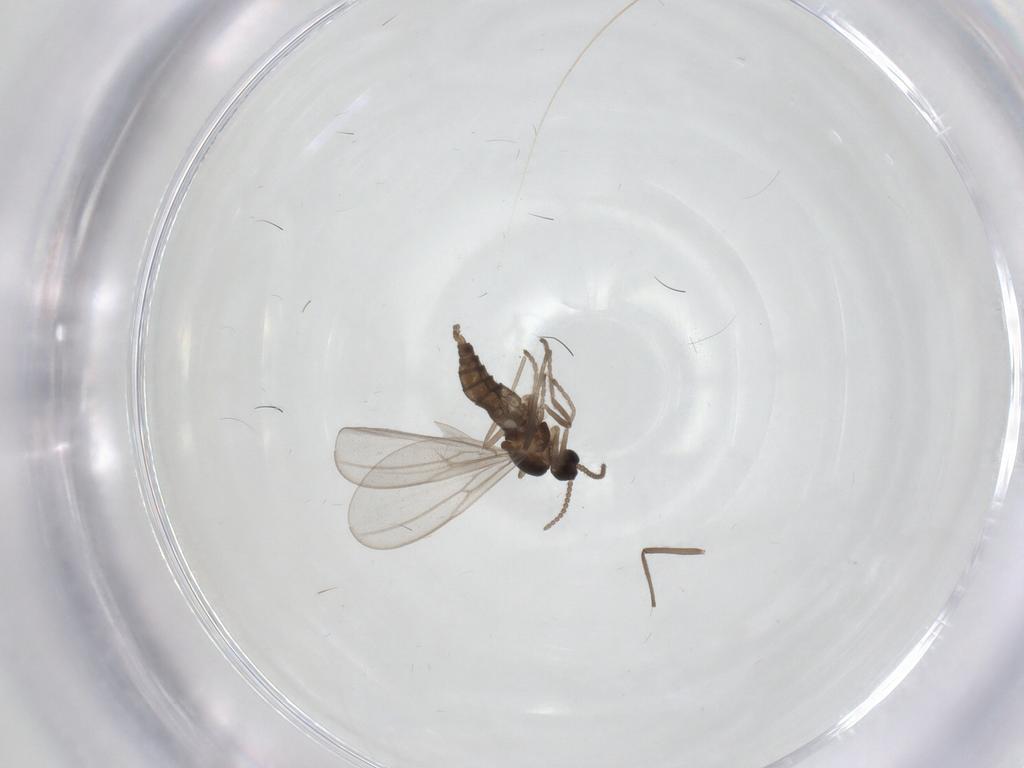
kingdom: Animalia
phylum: Arthropoda
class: Insecta
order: Diptera
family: Cecidomyiidae
